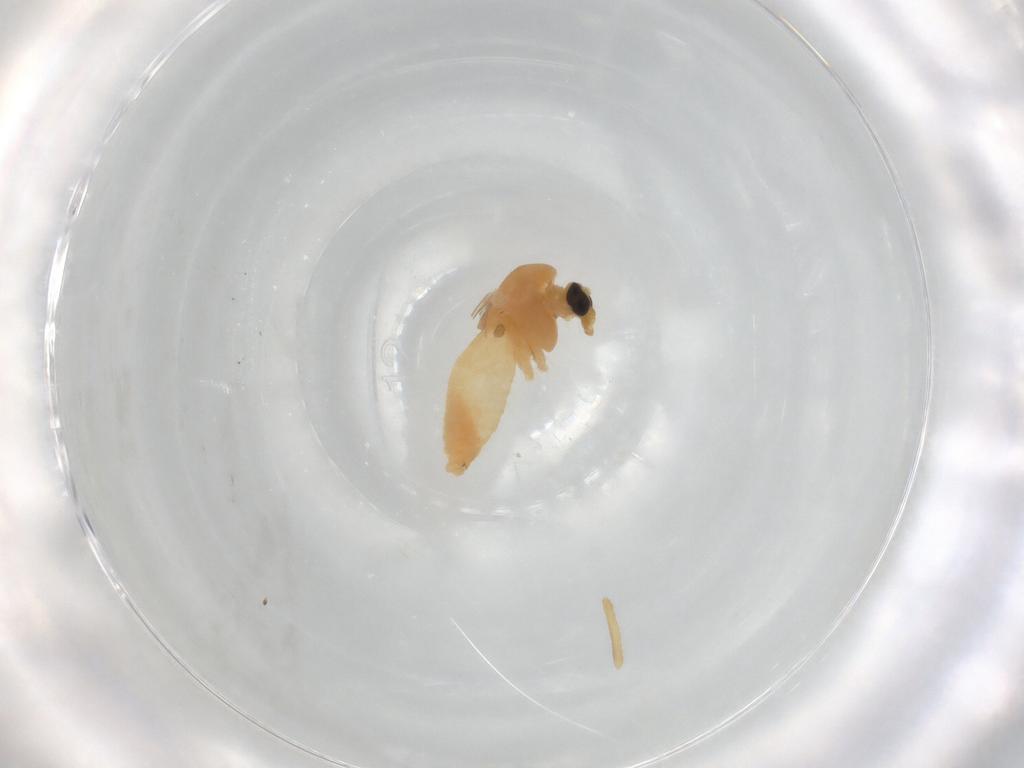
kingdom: Animalia
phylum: Arthropoda
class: Insecta
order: Diptera
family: Chironomidae
